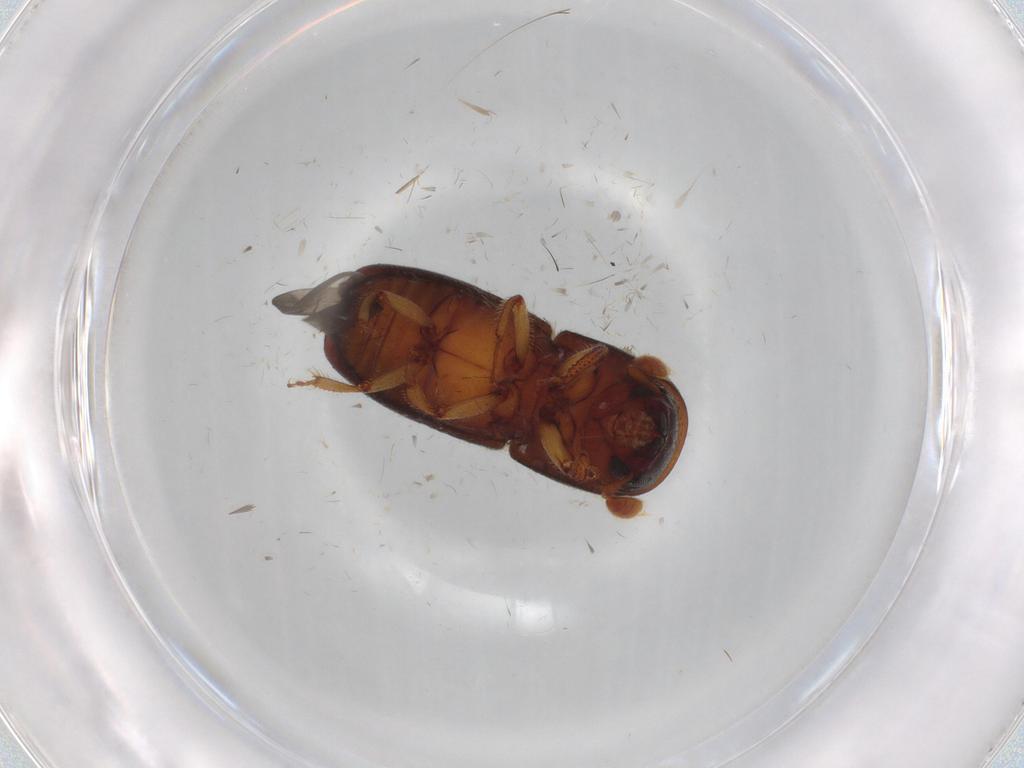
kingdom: Animalia
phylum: Arthropoda
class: Insecta
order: Coleoptera
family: Curculionidae
